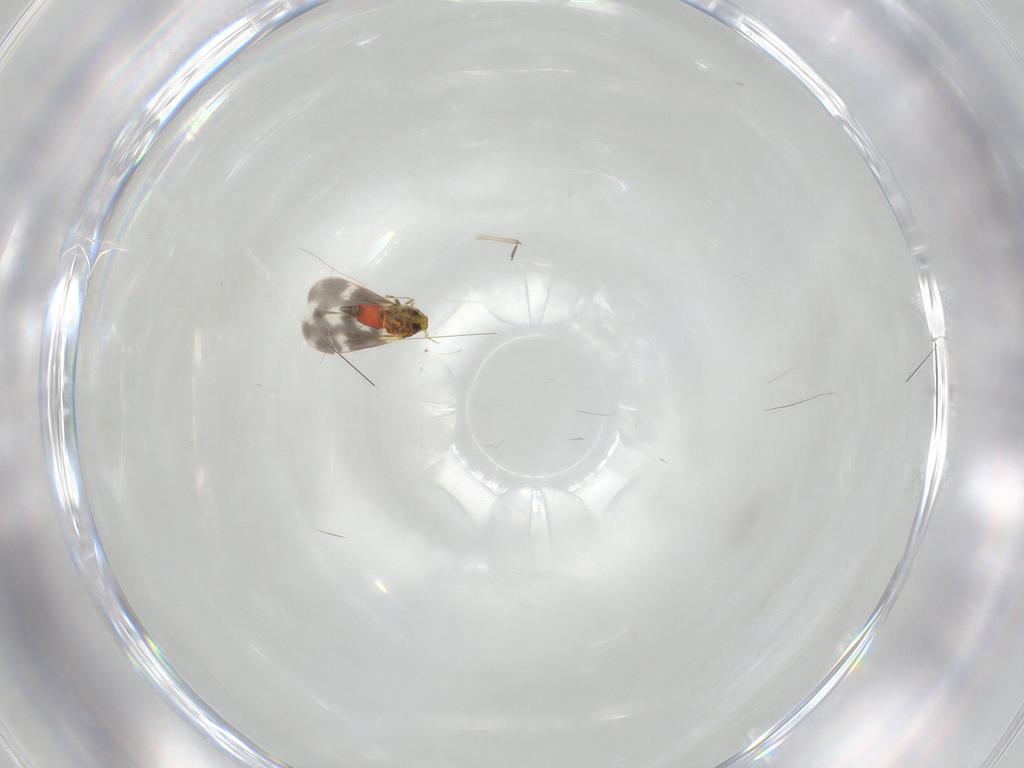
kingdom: Animalia
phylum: Arthropoda
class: Insecta
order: Hemiptera
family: Aleyrodidae
